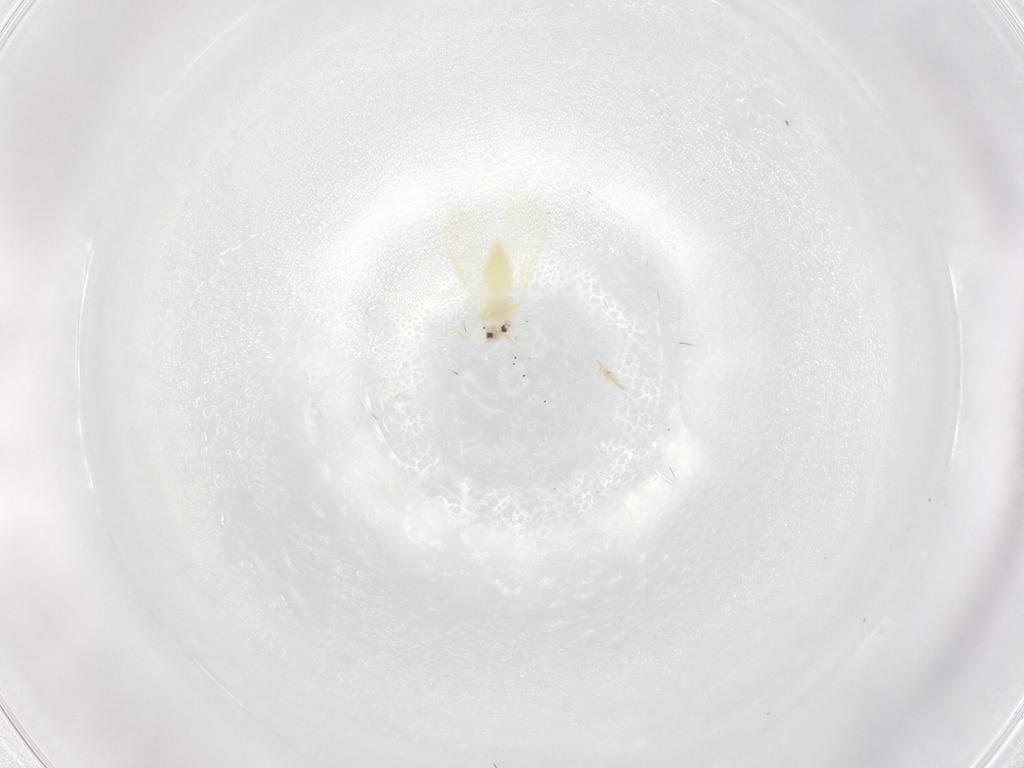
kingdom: Animalia
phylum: Arthropoda
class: Insecta
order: Hemiptera
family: Aleyrodidae
